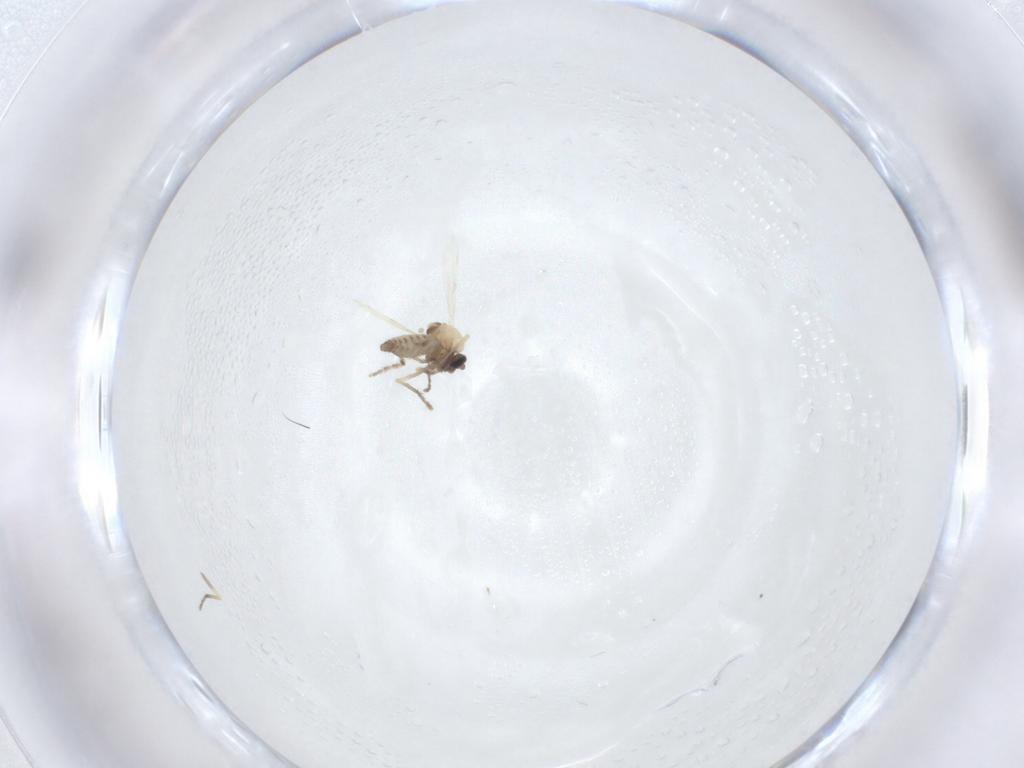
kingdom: Animalia
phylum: Arthropoda
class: Insecta
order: Diptera
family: Ceratopogonidae
